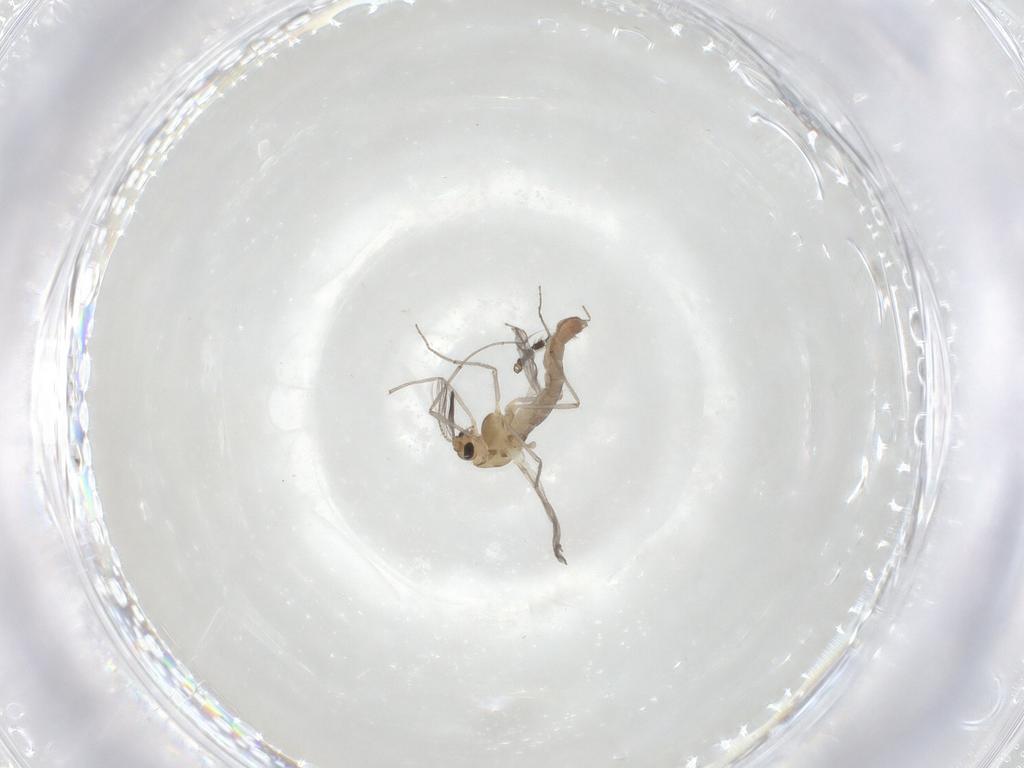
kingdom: Animalia
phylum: Arthropoda
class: Insecta
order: Diptera
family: Chironomidae
